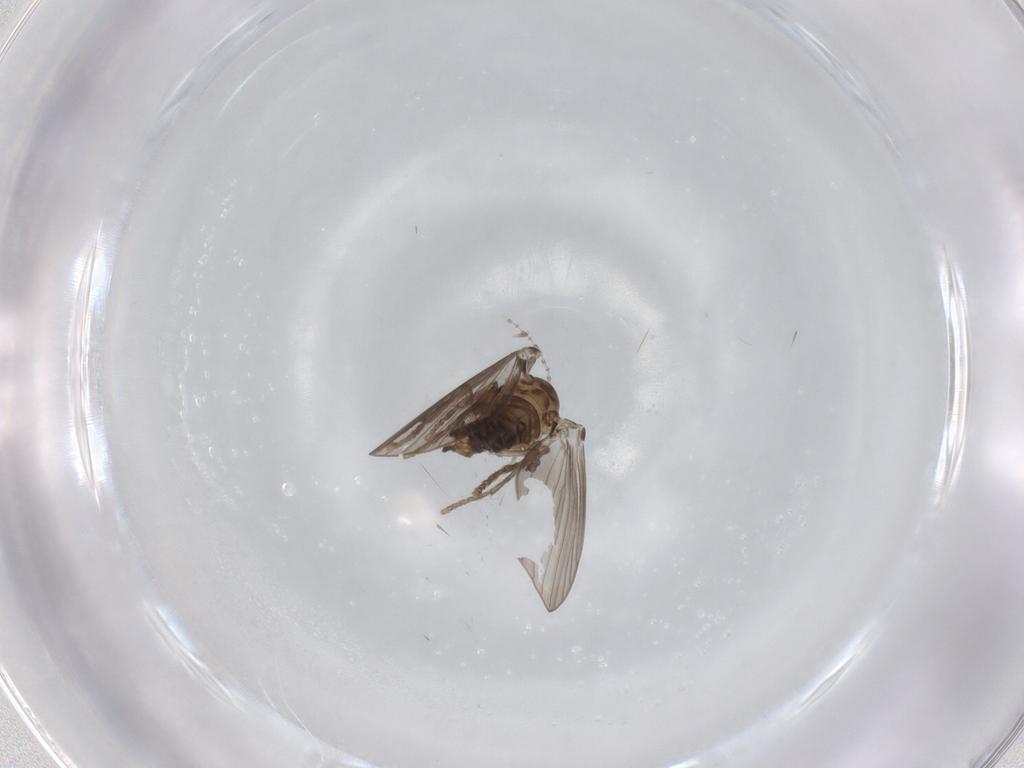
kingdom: Animalia
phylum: Arthropoda
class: Insecta
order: Diptera
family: Psychodidae
